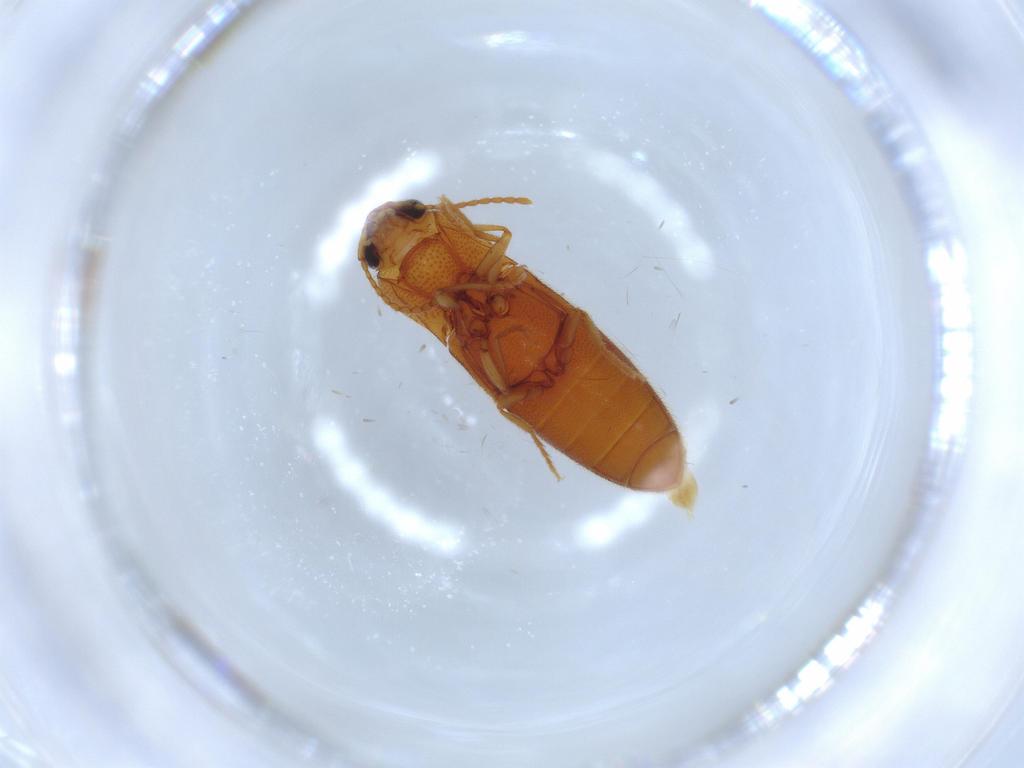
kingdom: Animalia
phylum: Arthropoda
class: Insecta
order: Coleoptera
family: Elateridae
